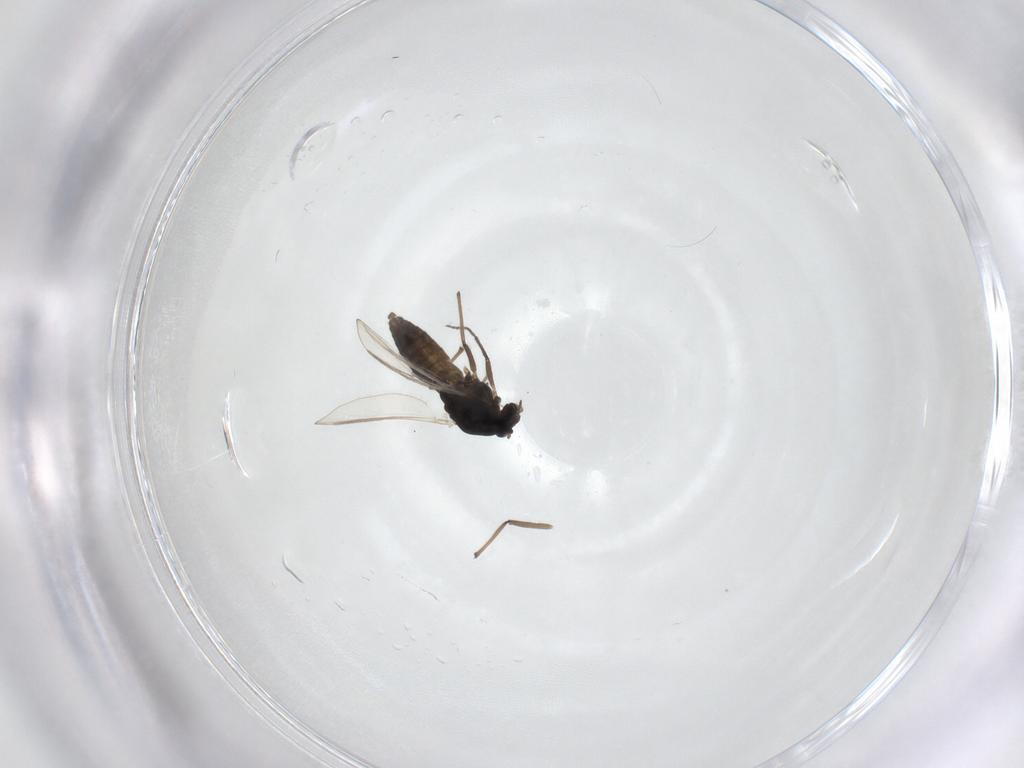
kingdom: Animalia
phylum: Arthropoda
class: Insecta
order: Diptera
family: Chironomidae
